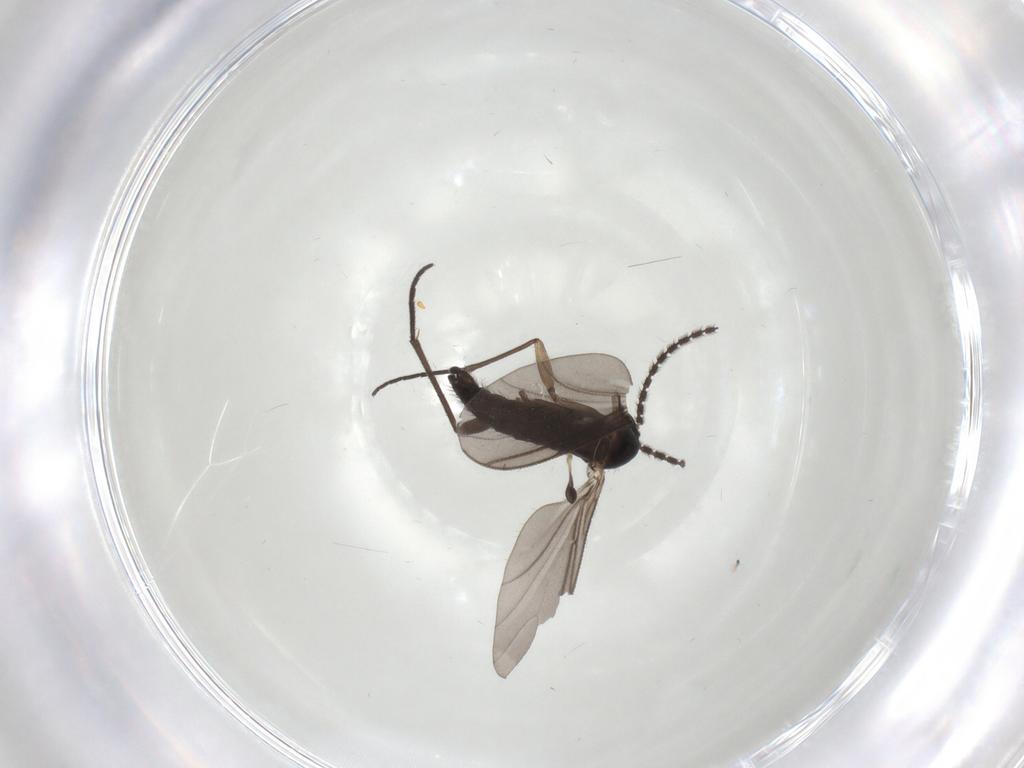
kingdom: Animalia
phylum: Arthropoda
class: Insecta
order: Diptera
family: Sciaridae
